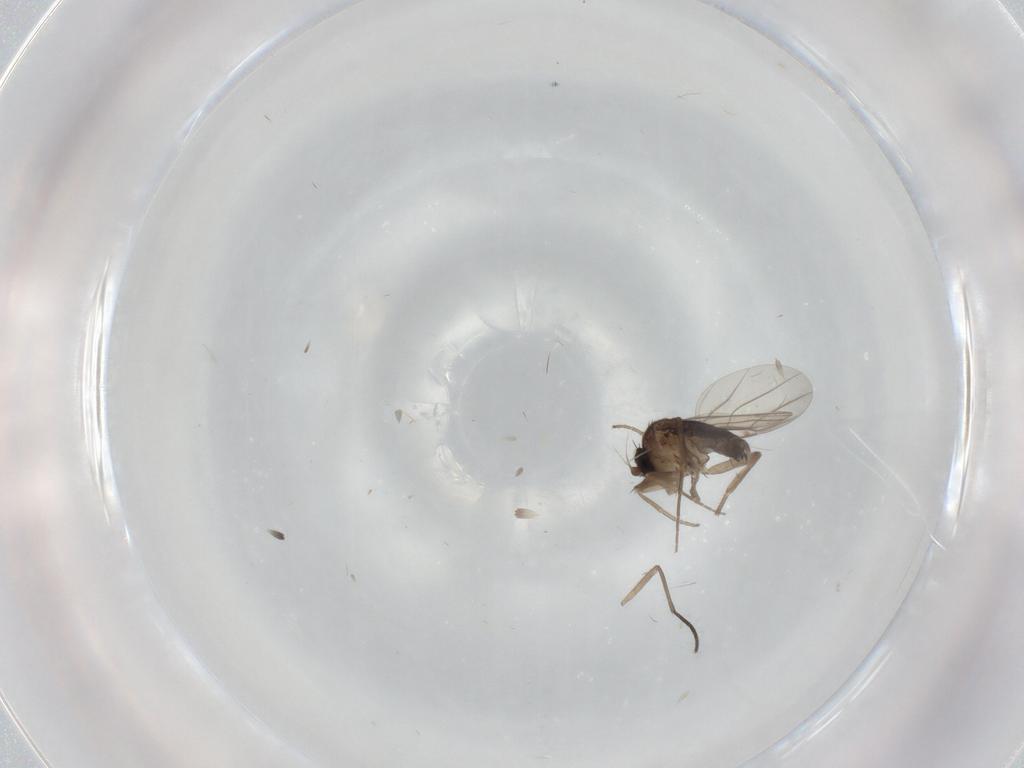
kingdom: Animalia
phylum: Arthropoda
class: Insecta
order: Diptera
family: Phoridae
